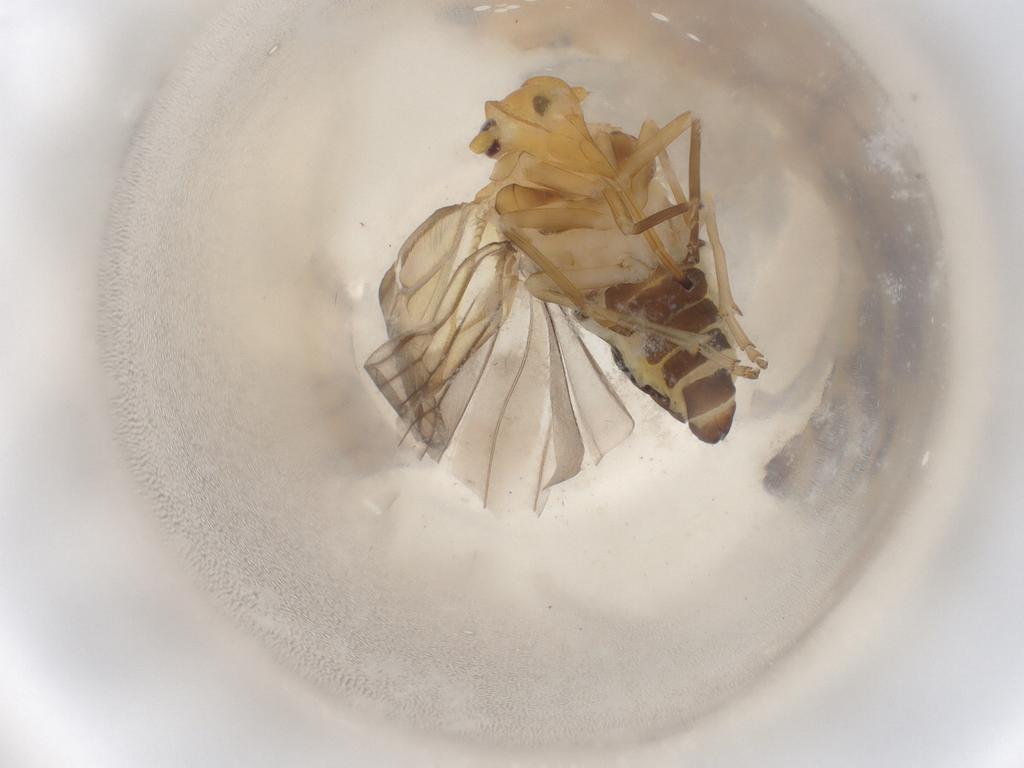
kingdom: Animalia
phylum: Arthropoda
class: Insecta
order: Hemiptera
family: Meenoplidae
